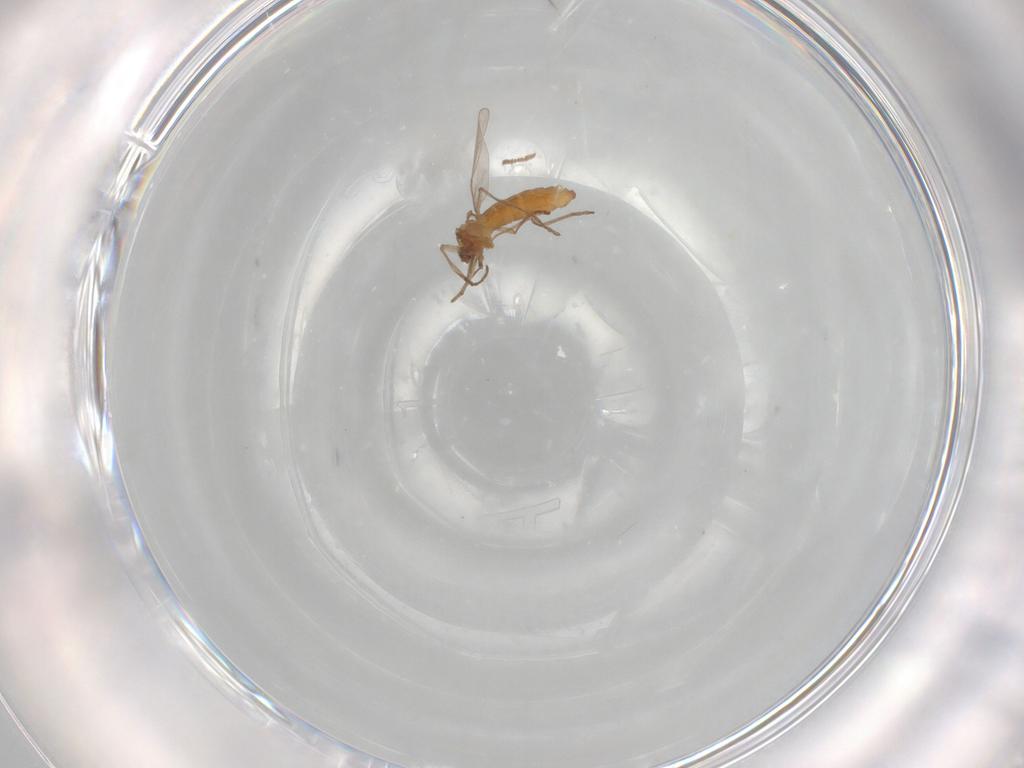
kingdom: Animalia
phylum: Arthropoda
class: Insecta
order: Diptera
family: Cecidomyiidae
